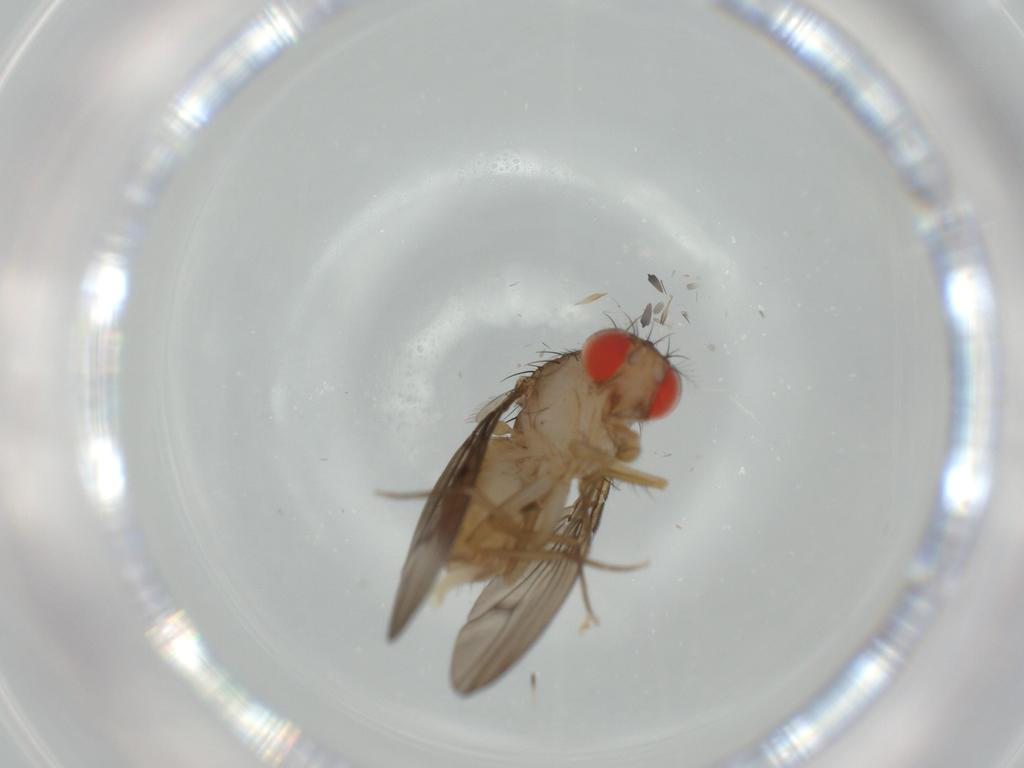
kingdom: Animalia
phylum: Arthropoda
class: Insecta
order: Diptera
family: Drosophilidae
